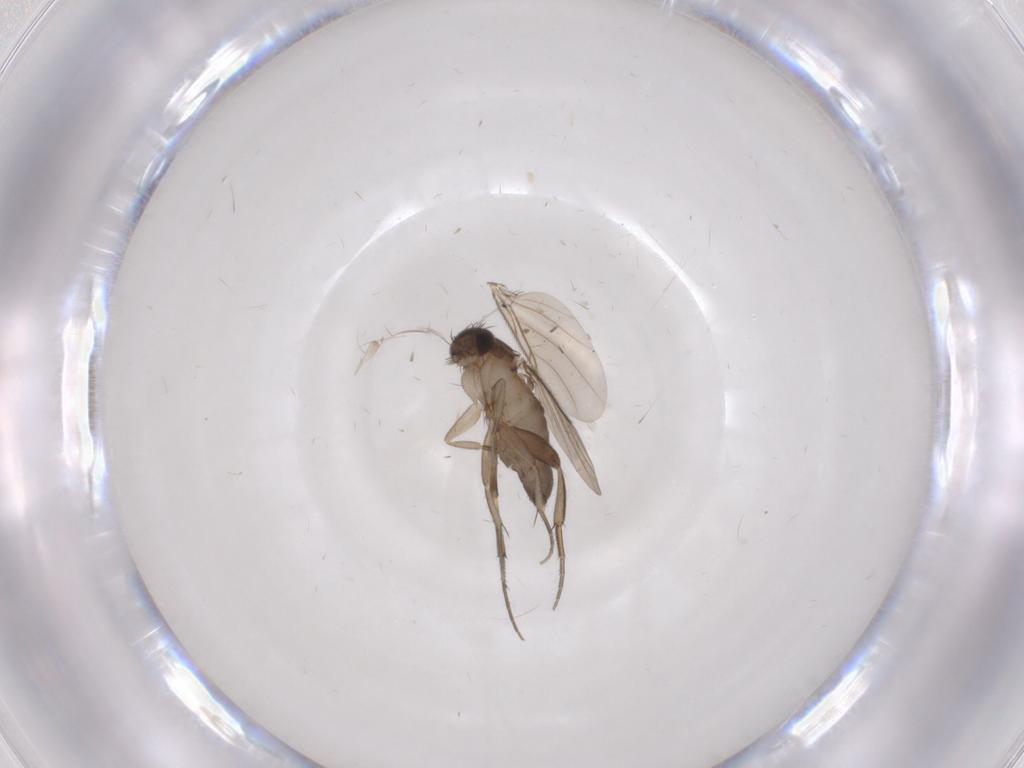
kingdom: Animalia
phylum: Arthropoda
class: Insecta
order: Diptera
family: Phoridae
